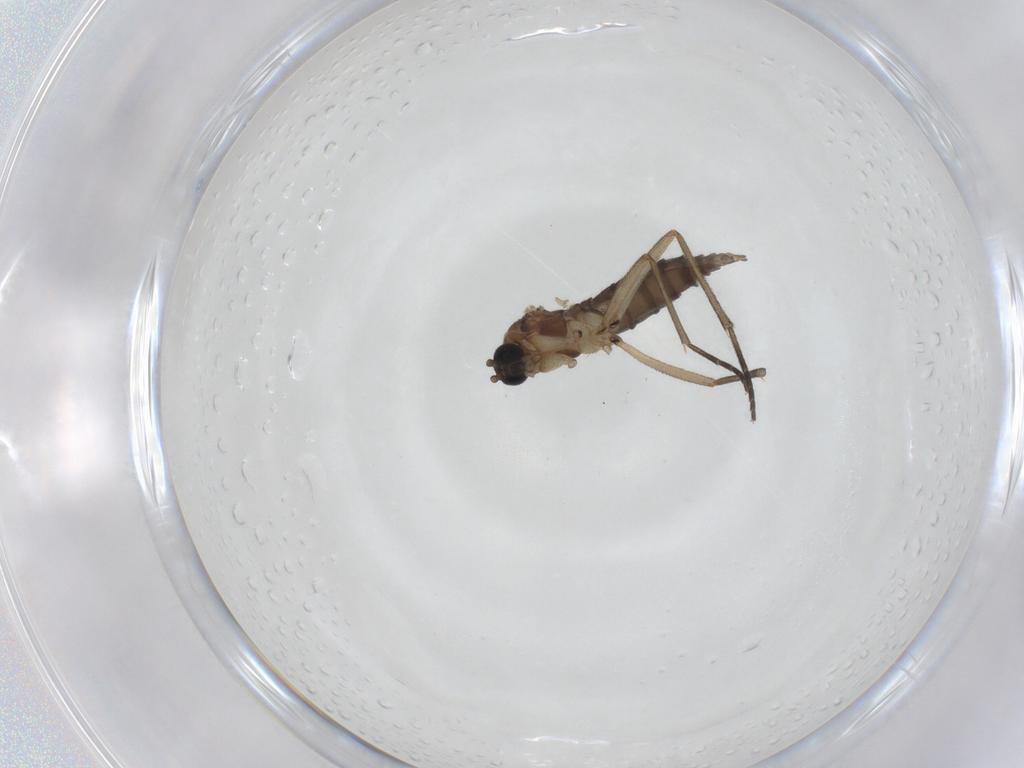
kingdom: Animalia
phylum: Arthropoda
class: Insecta
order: Diptera
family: Sciaridae
